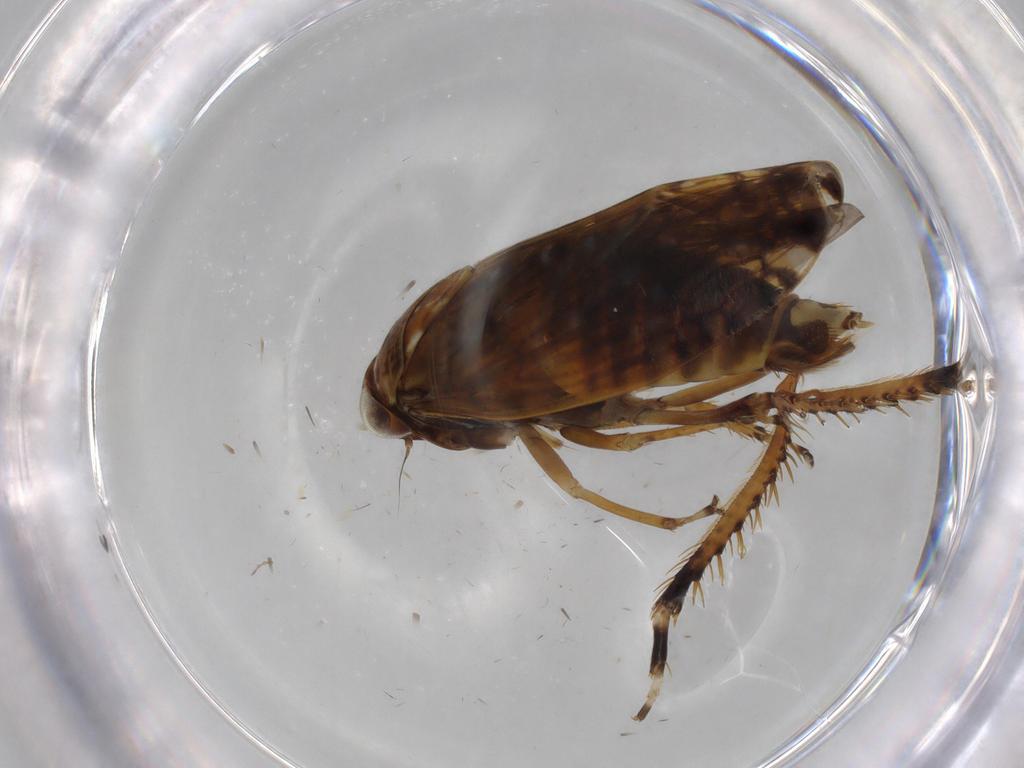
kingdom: Animalia
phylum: Arthropoda
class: Insecta
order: Hemiptera
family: Cicadellidae
